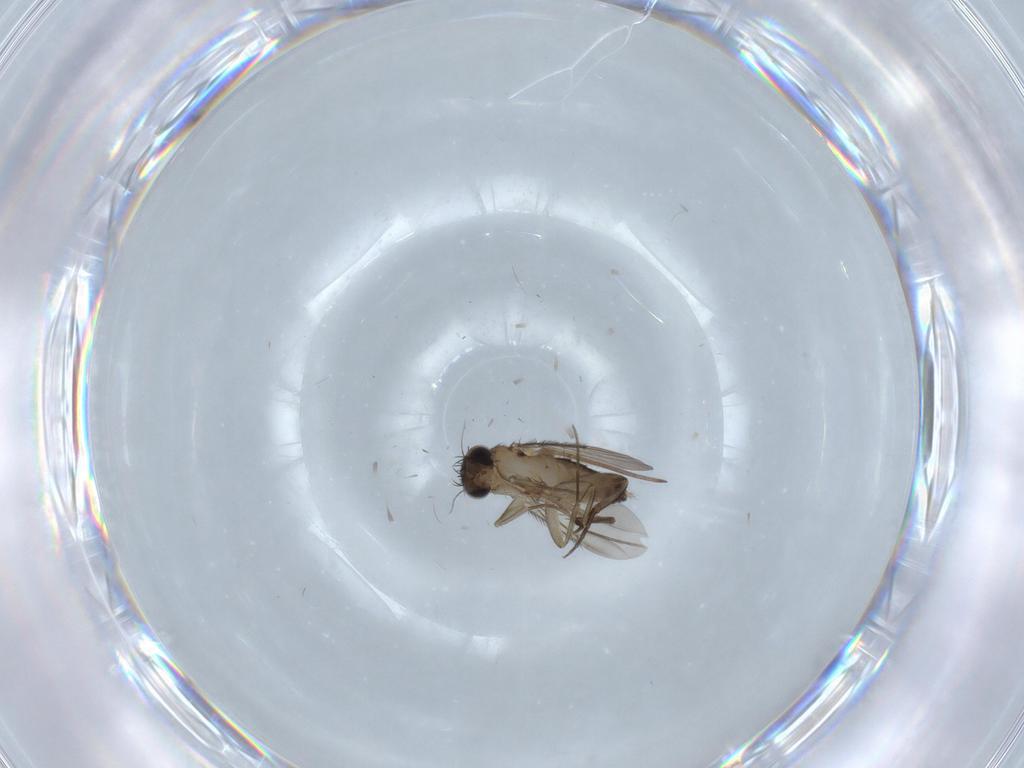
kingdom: Animalia
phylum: Arthropoda
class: Insecta
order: Diptera
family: Phoridae
